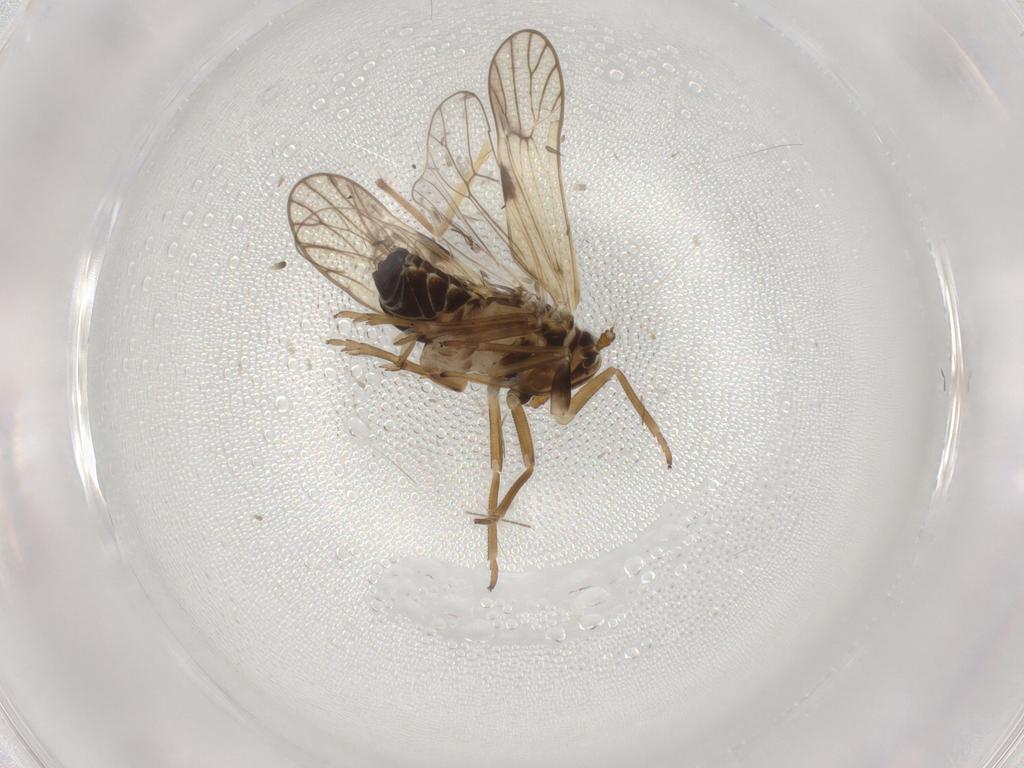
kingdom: Animalia
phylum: Arthropoda
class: Insecta
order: Hemiptera
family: Delphacidae
